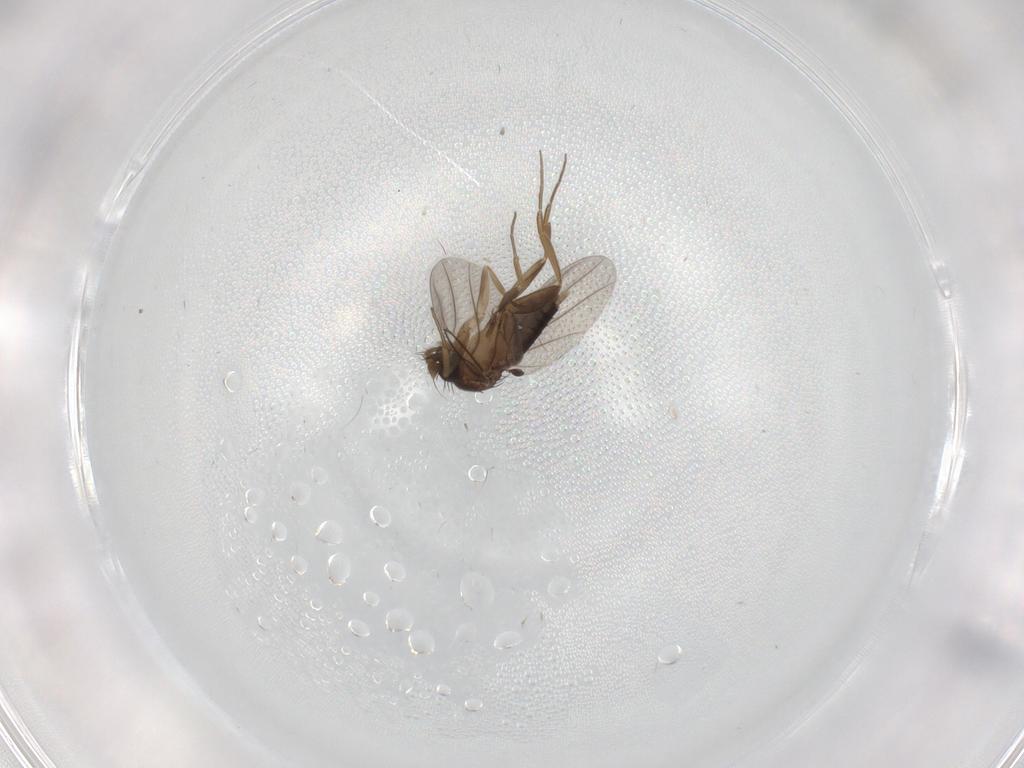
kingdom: Animalia
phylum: Arthropoda
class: Insecta
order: Diptera
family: Phoridae
